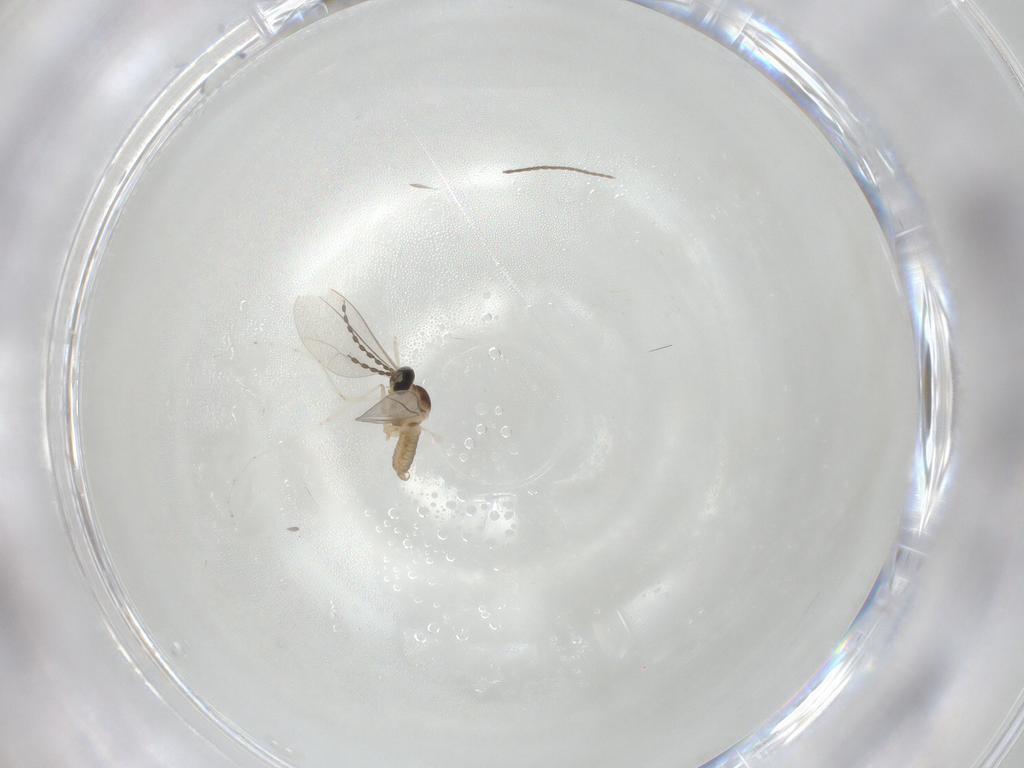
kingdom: Animalia
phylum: Arthropoda
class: Insecta
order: Diptera
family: Cecidomyiidae
